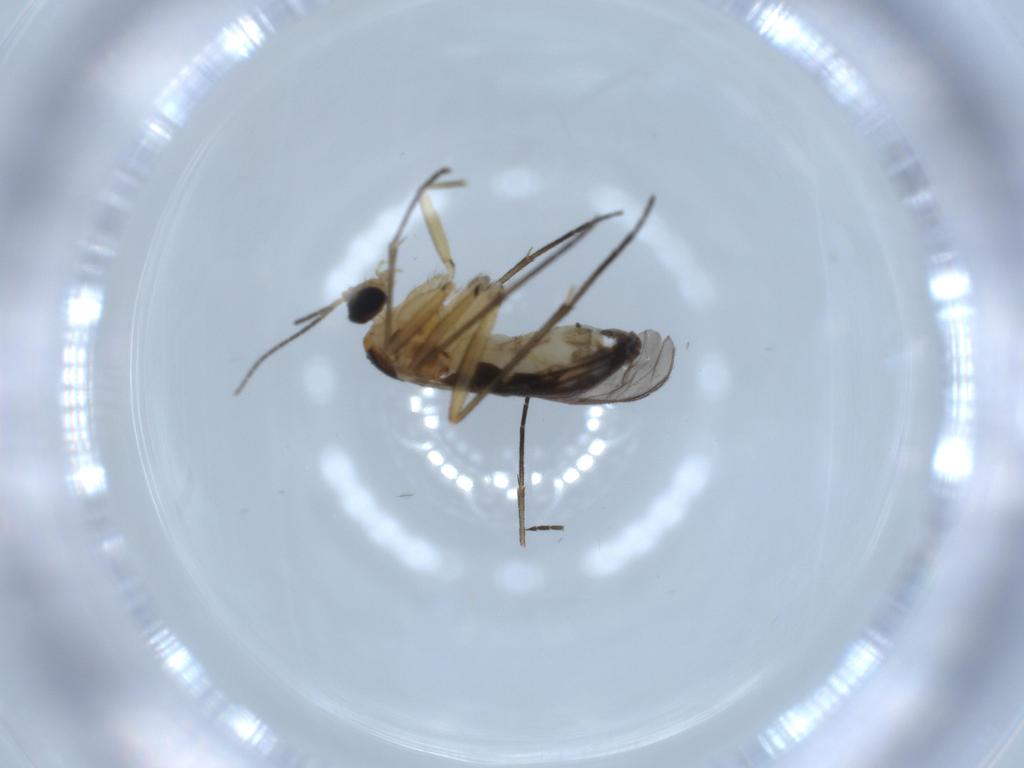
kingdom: Animalia
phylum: Arthropoda
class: Insecta
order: Diptera
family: Sciaridae
